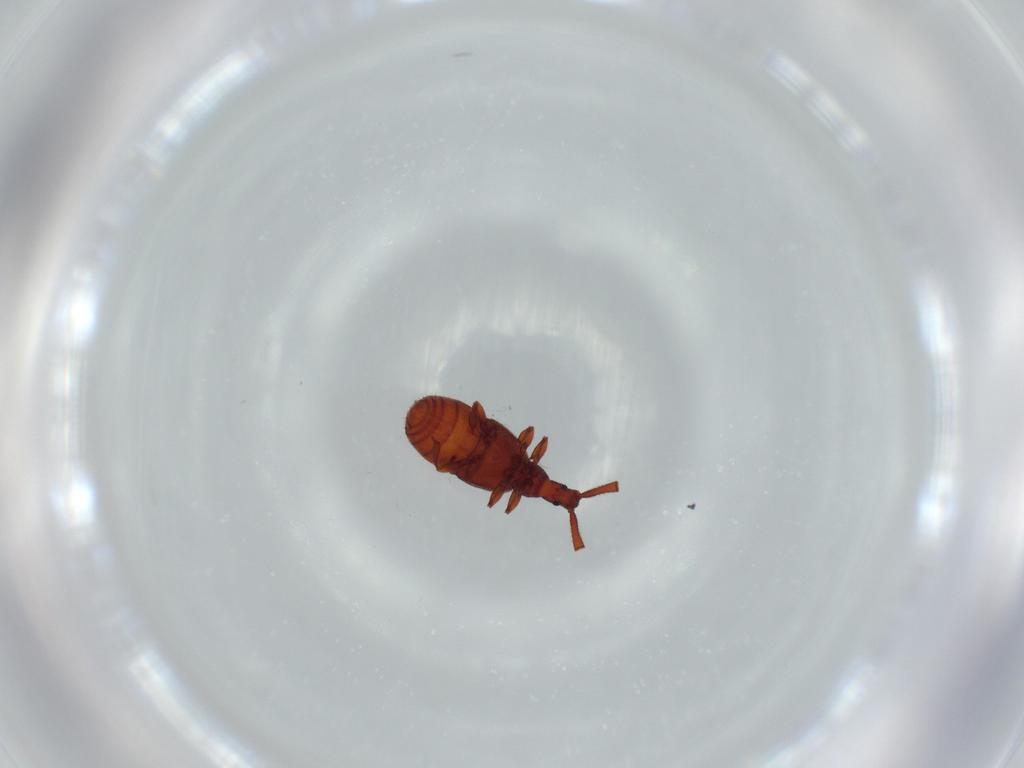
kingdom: Animalia
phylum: Arthropoda
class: Insecta
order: Coleoptera
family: Staphylinidae
